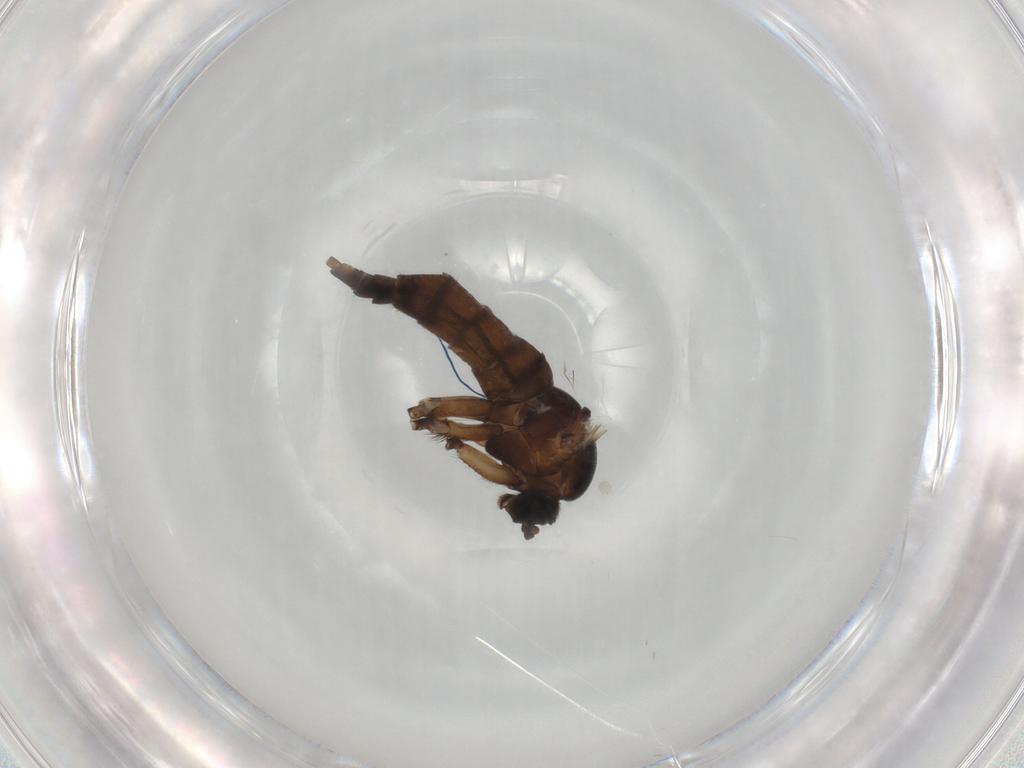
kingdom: Animalia
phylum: Arthropoda
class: Insecta
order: Diptera
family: Sciaridae
